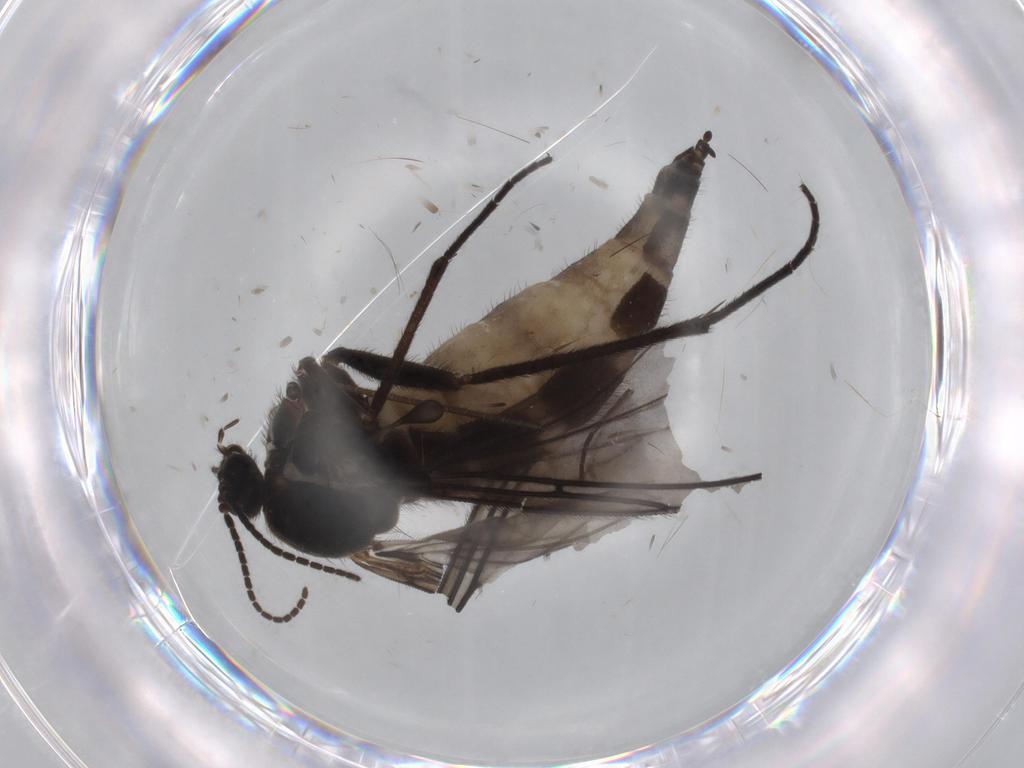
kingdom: Animalia
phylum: Arthropoda
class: Insecta
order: Diptera
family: Sciaridae
